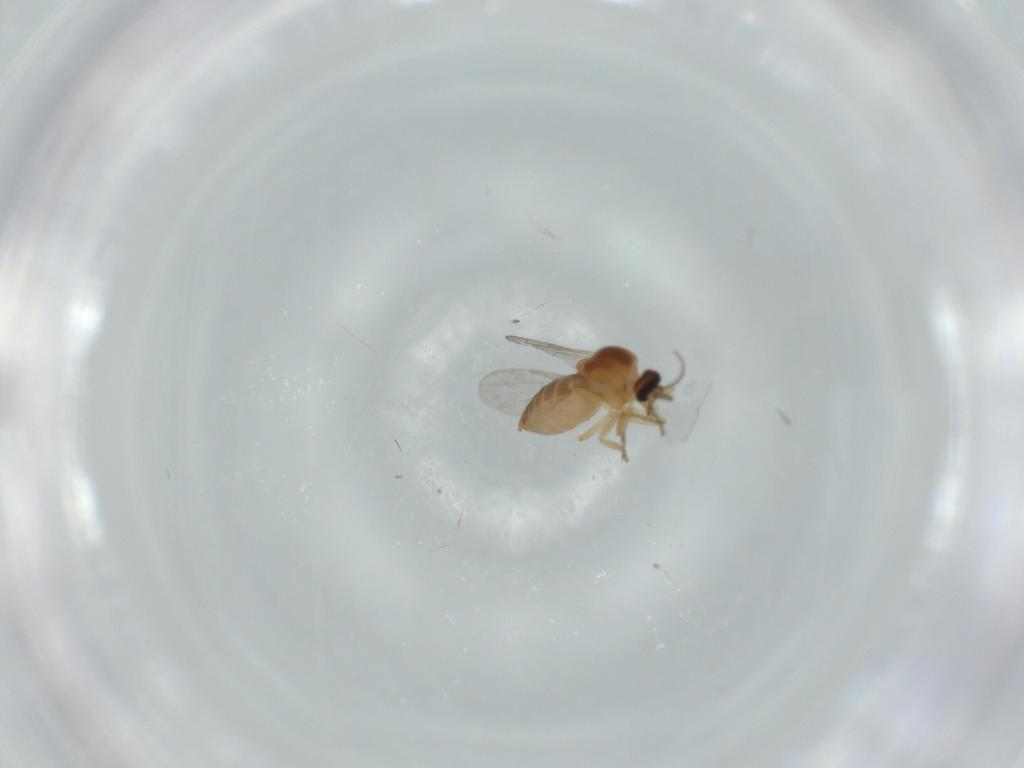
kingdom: Animalia
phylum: Arthropoda
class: Insecta
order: Diptera
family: Ceratopogonidae
